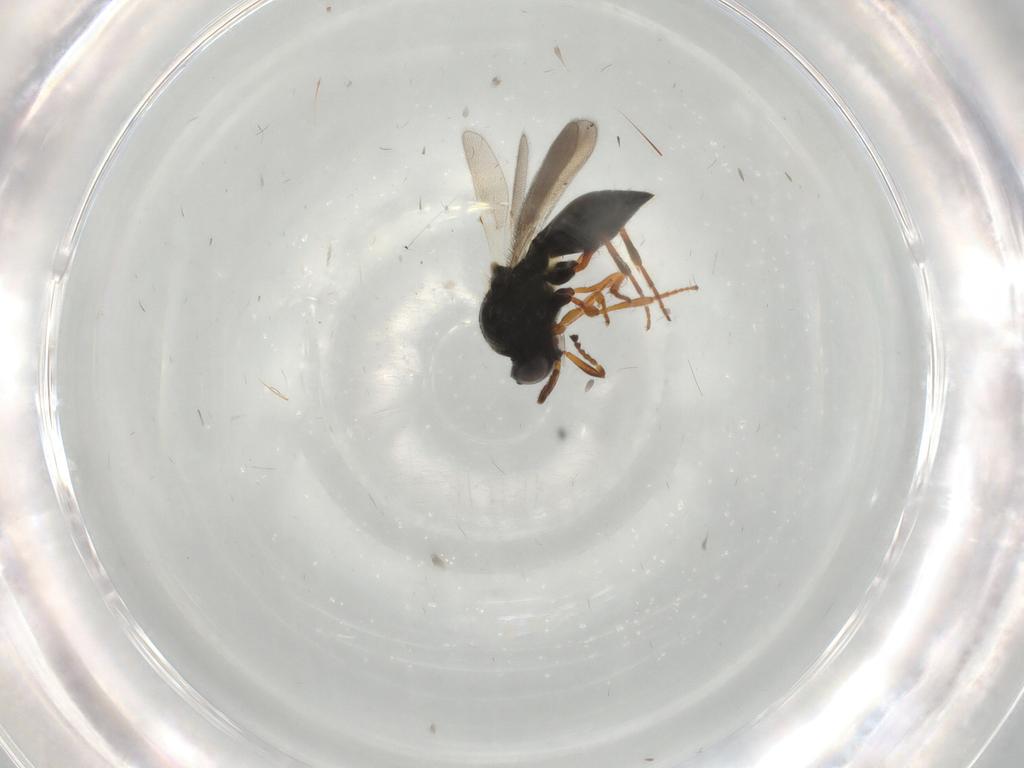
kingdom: Animalia
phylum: Arthropoda
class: Insecta
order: Hymenoptera
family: Platygastridae
